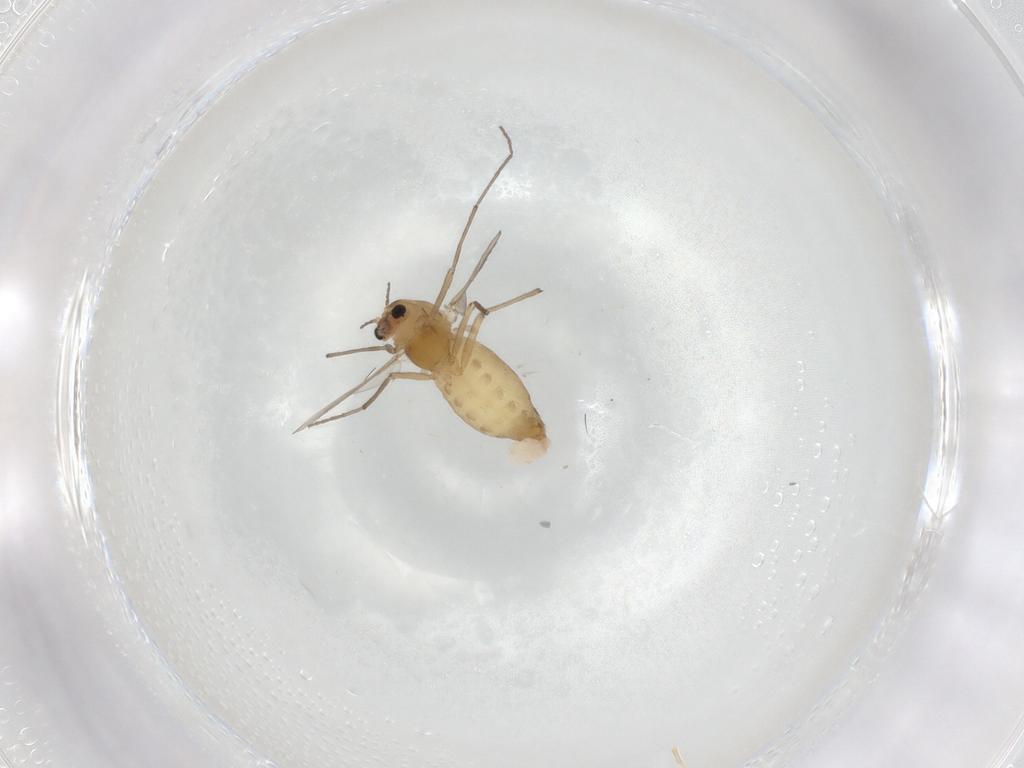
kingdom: Animalia
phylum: Arthropoda
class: Insecta
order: Diptera
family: Chironomidae
